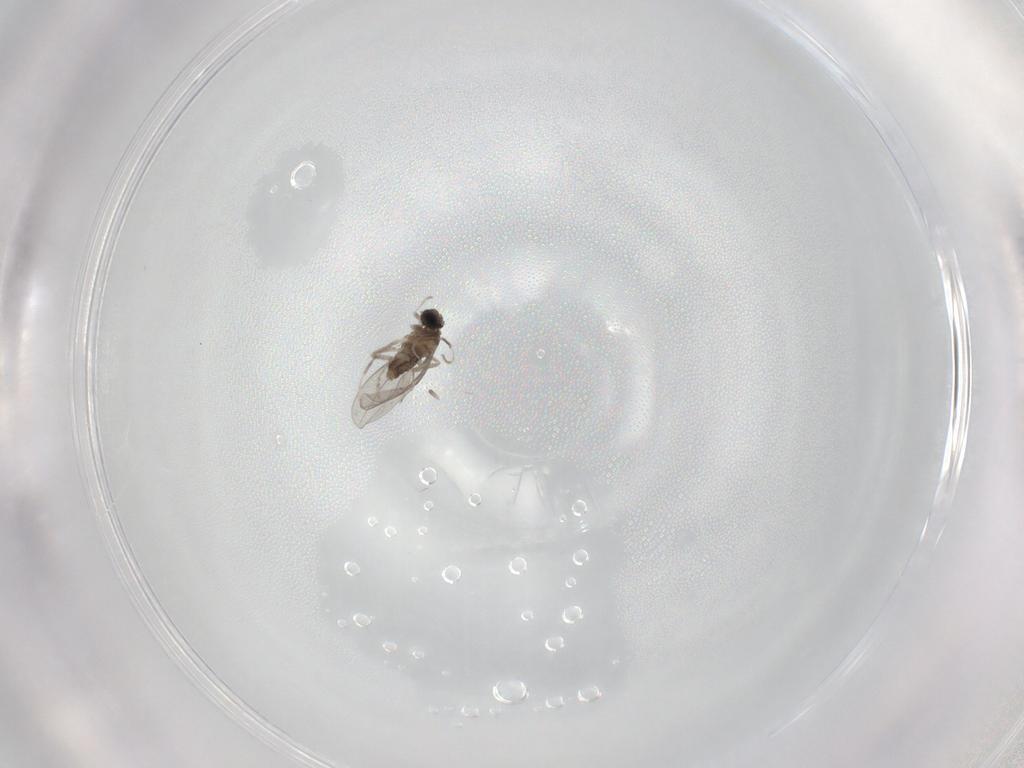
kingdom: Animalia
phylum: Arthropoda
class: Insecta
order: Diptera
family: Cecidomyiidae
